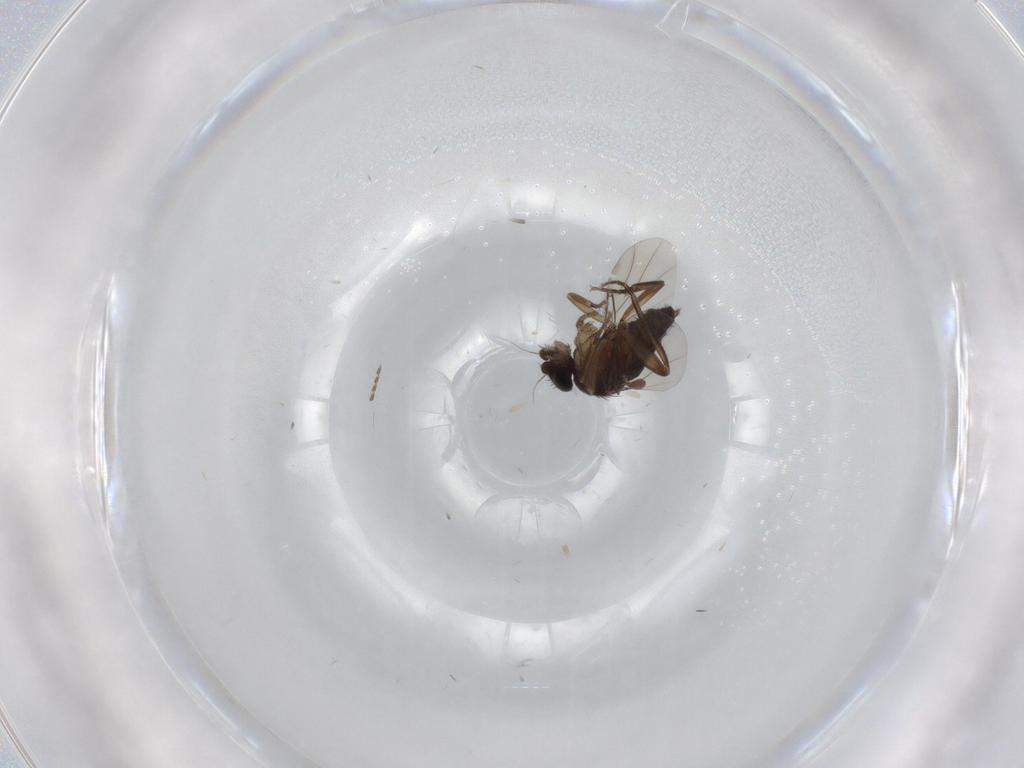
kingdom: Animalia
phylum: Arthropoda
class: Insecta
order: Diptera
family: Phoridae
